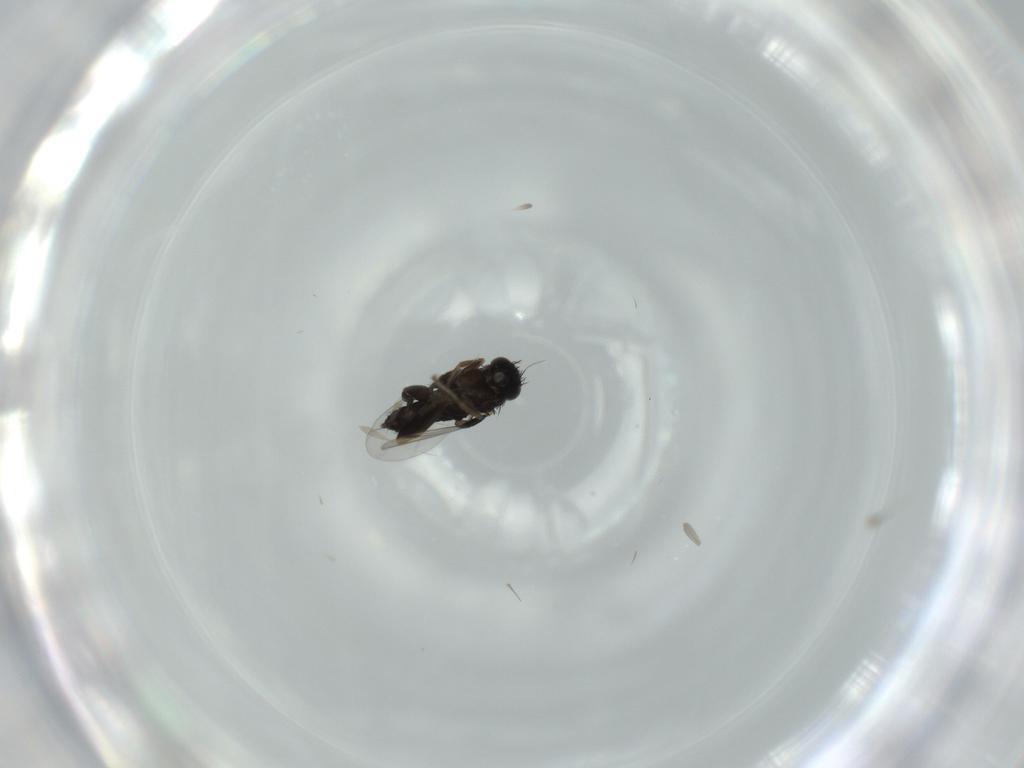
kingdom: Animalia
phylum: Arthropoda
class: Insecta
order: Diptera
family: Phoridae
